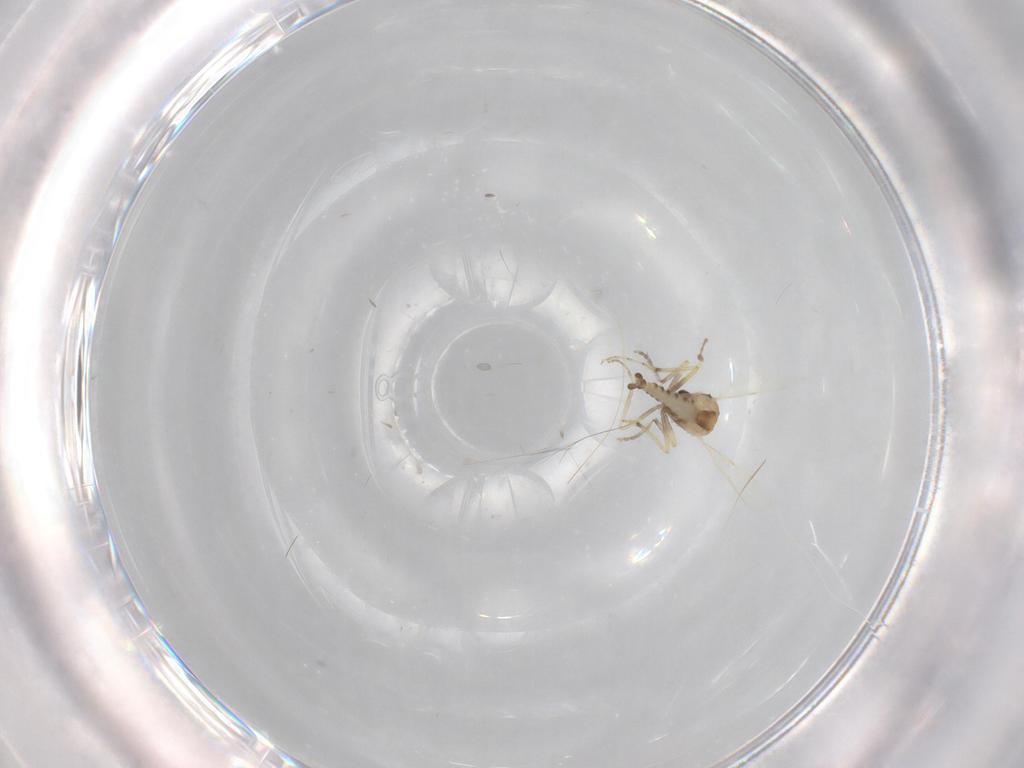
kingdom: Animalia
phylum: Arthropoda
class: Insecta
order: Diptera
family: Ceratopogonidae
